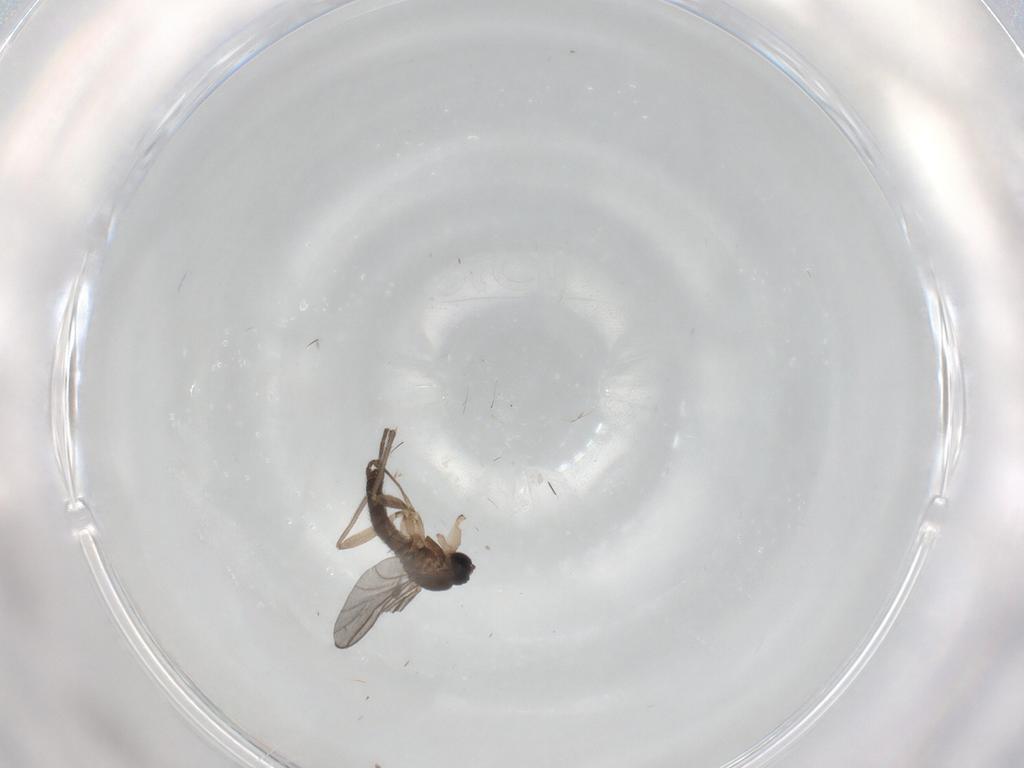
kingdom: Animalia
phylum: Arthropoda
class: Insecta
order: Diptera
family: Sciaridae
